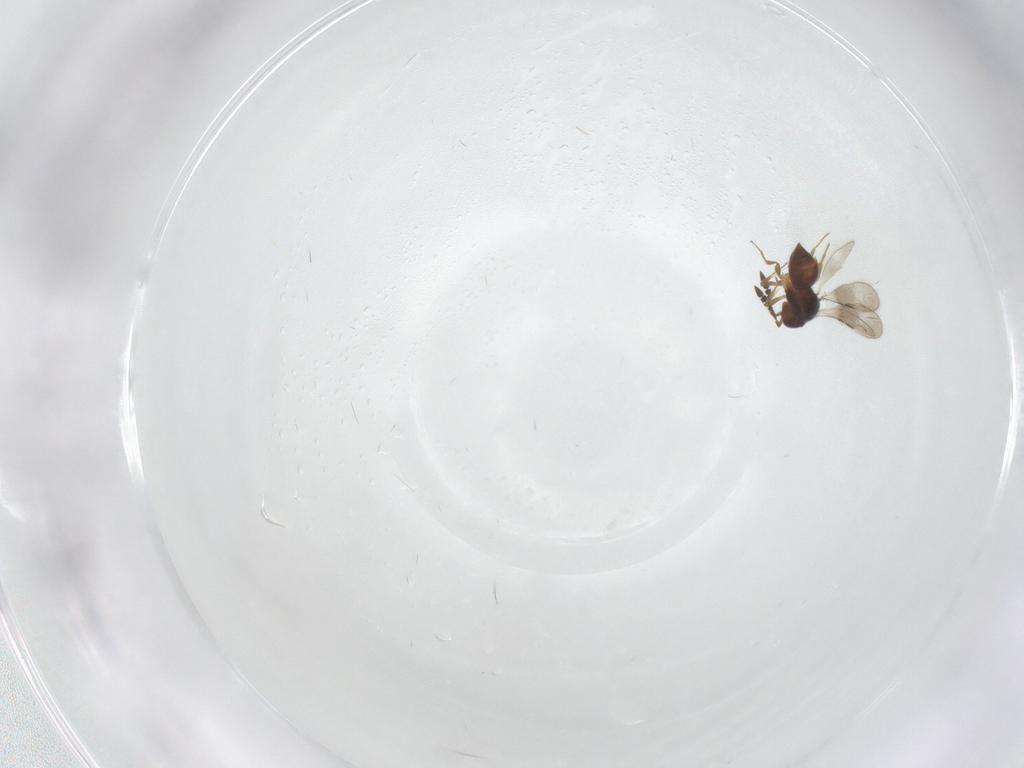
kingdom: Animalia
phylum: Arthropoda
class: Insecta
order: Hymenoptera
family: Ceraphronidae
